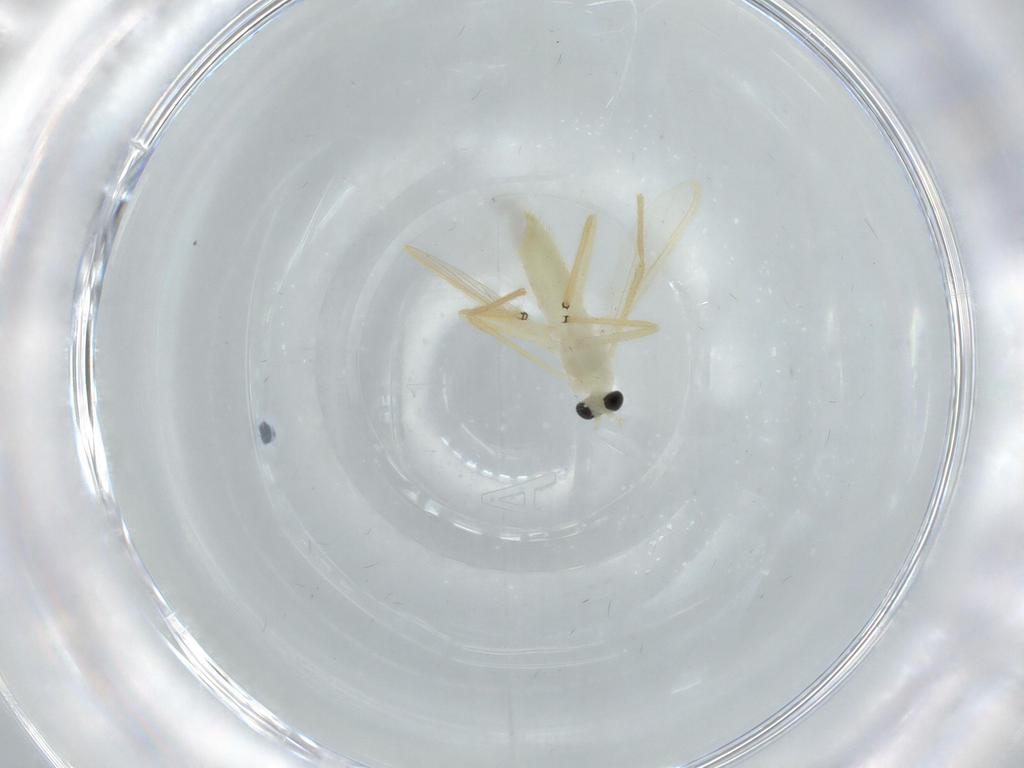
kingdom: Animalia
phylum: Arthropoda
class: Insecta
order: Diptera
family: Chironomidae
